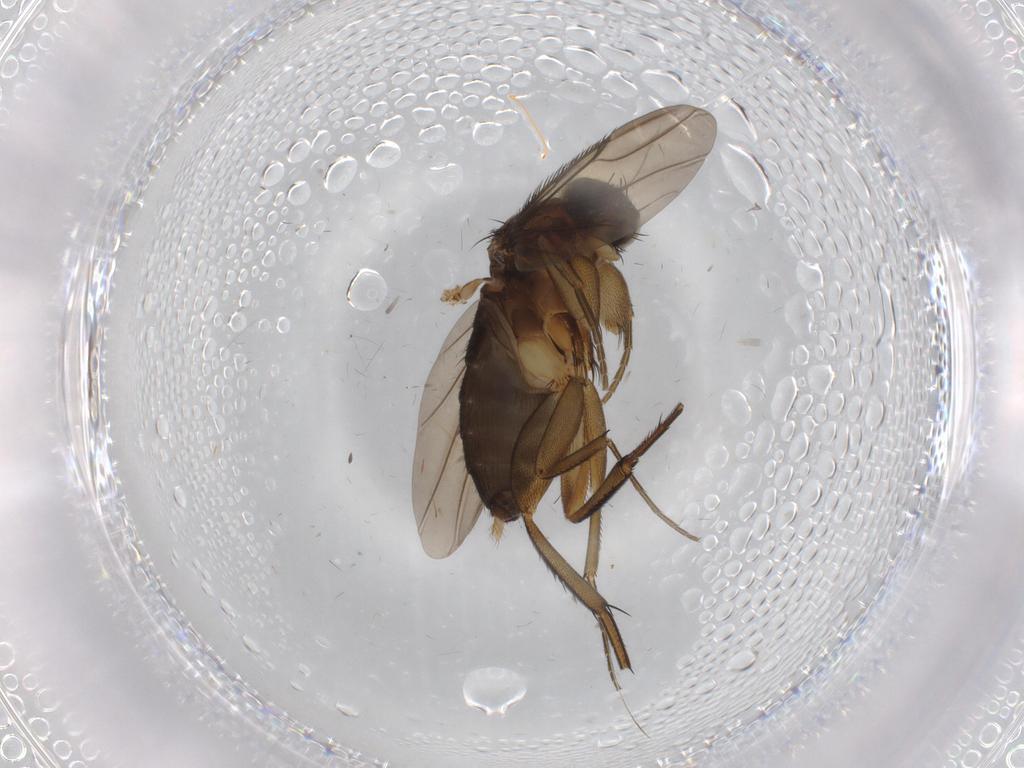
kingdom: Animalia
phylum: Arthropoda
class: Insecta
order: Diptera
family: Phoridae
